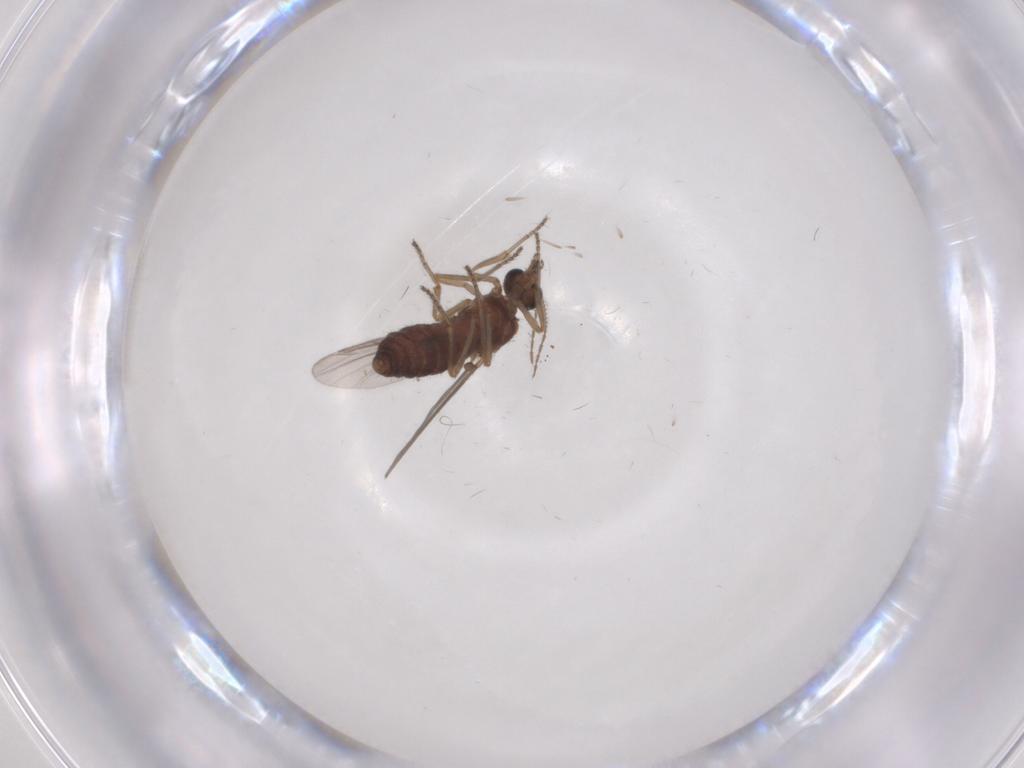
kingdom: Animalia
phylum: Arthropoda
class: Insecta
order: Diptera
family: Ceratopogonidae
